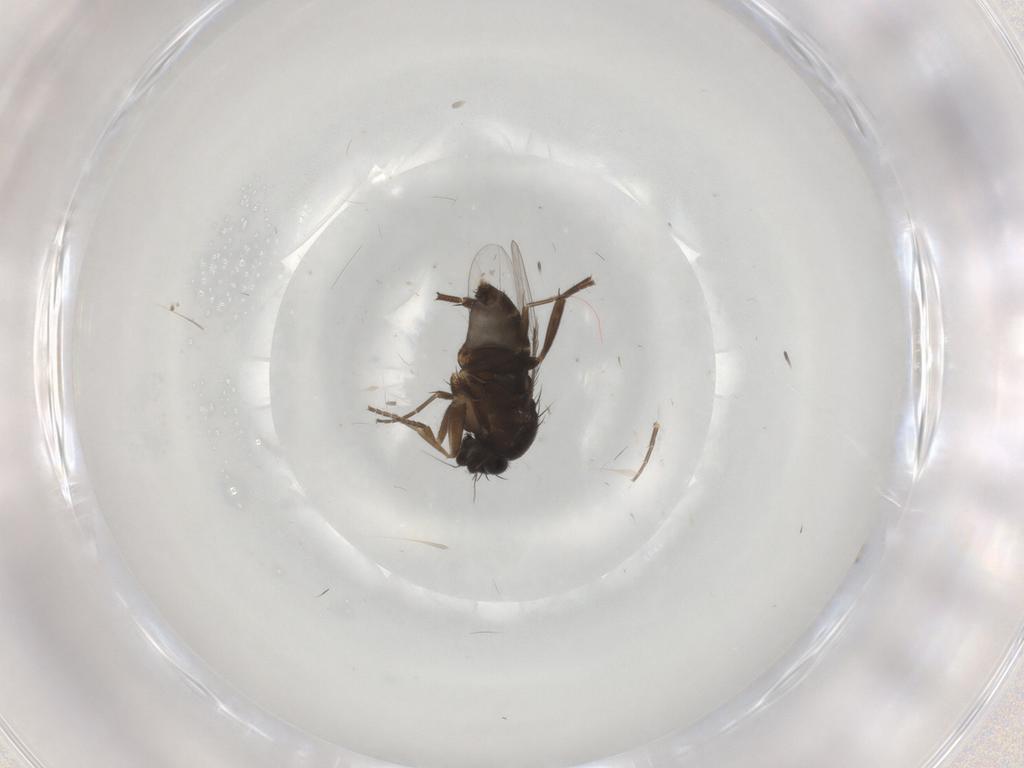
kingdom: Animalia
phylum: Arthropoda
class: Insecta
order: Diptera
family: Phoridae
